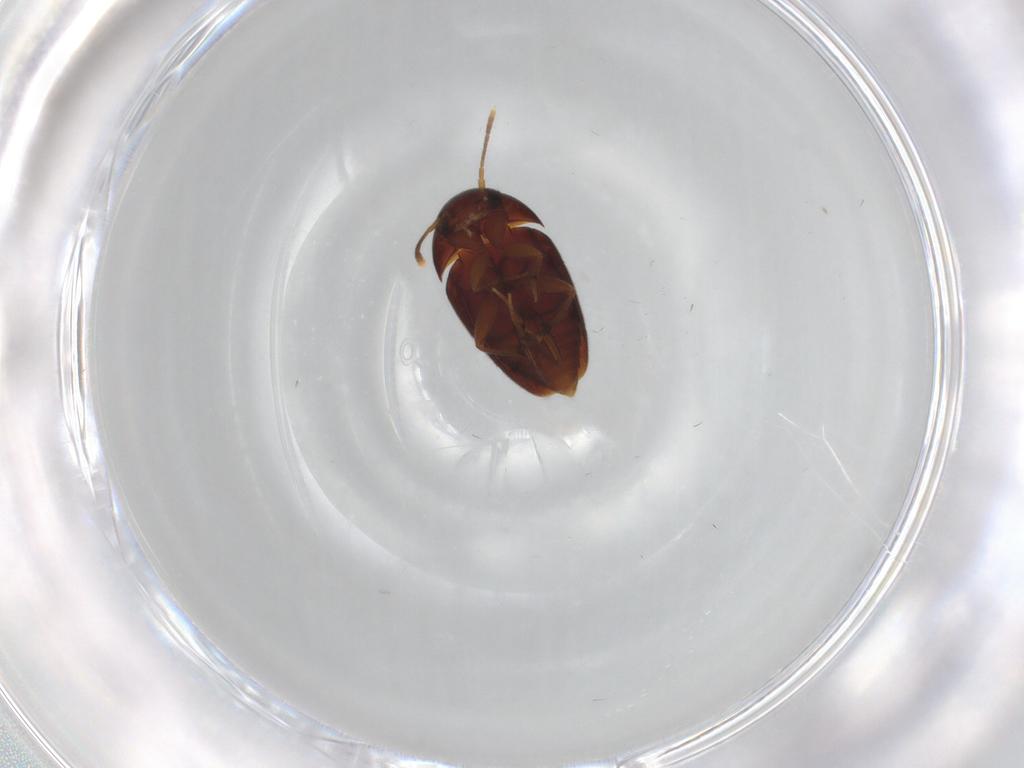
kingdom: Animalia
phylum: Arthropoda
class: Insecta
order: Coleoptera
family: Leiodidae
